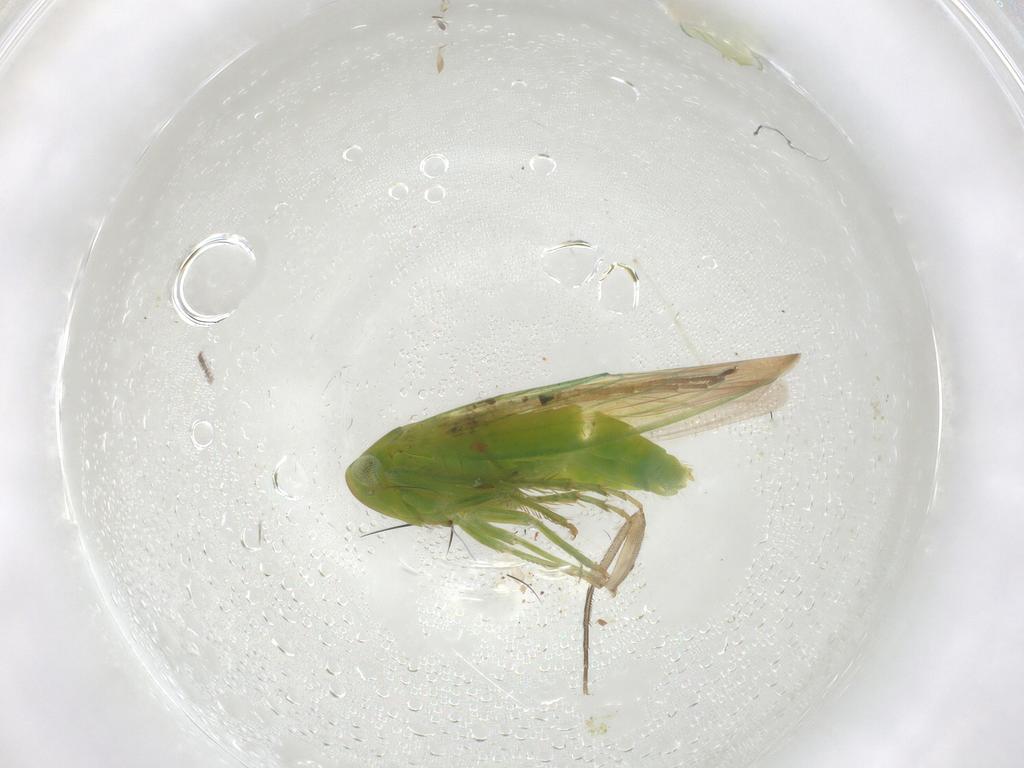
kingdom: Animalia
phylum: Arthropoda
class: Insecta
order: Hemiptera
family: Cicadellidae
